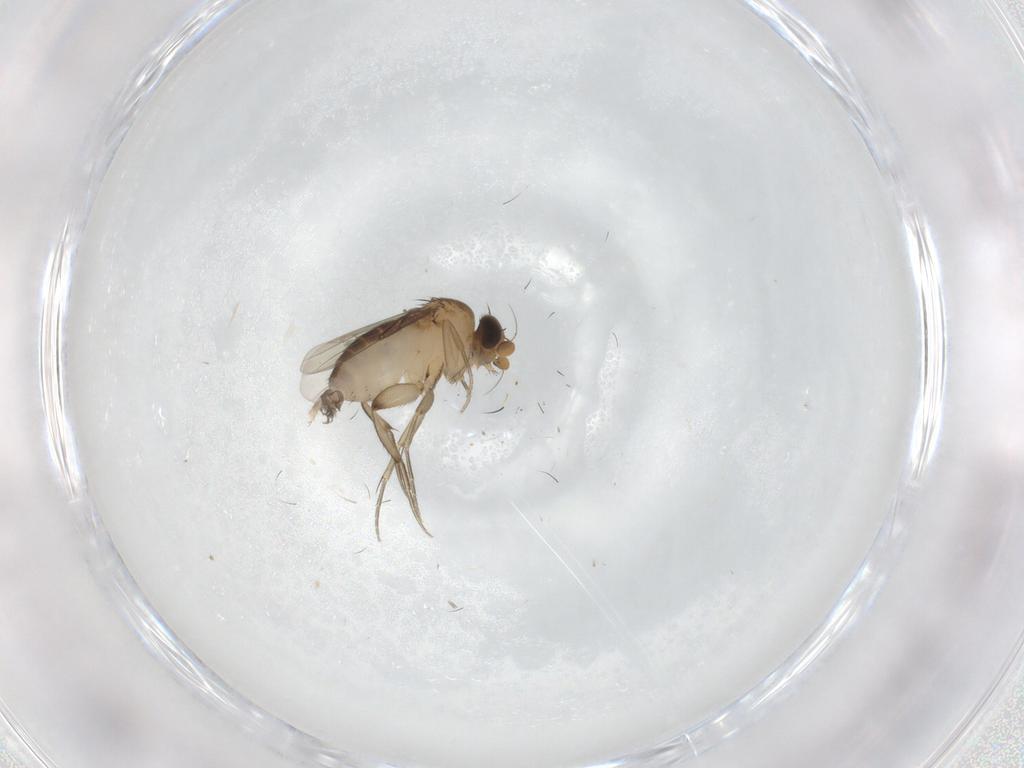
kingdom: Animalia
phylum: Arthropoda
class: Insecta
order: Diptera
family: Phoridae
